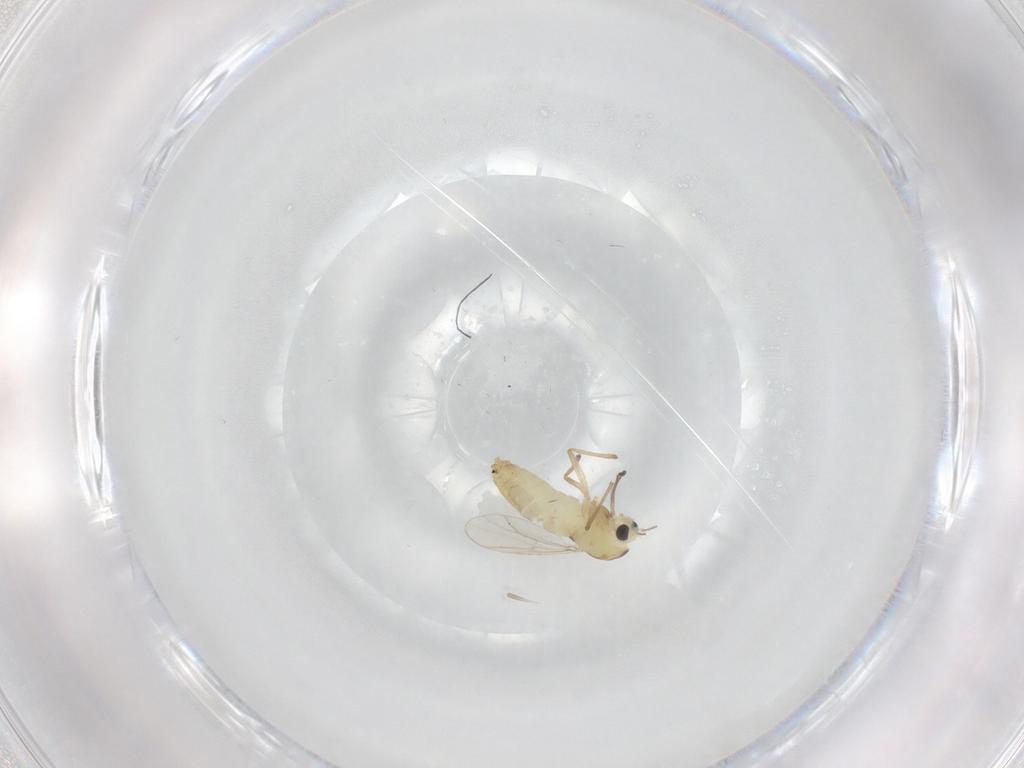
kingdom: Animalia
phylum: Arthropoda
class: Insecta
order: Diptera
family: Chironomidae
